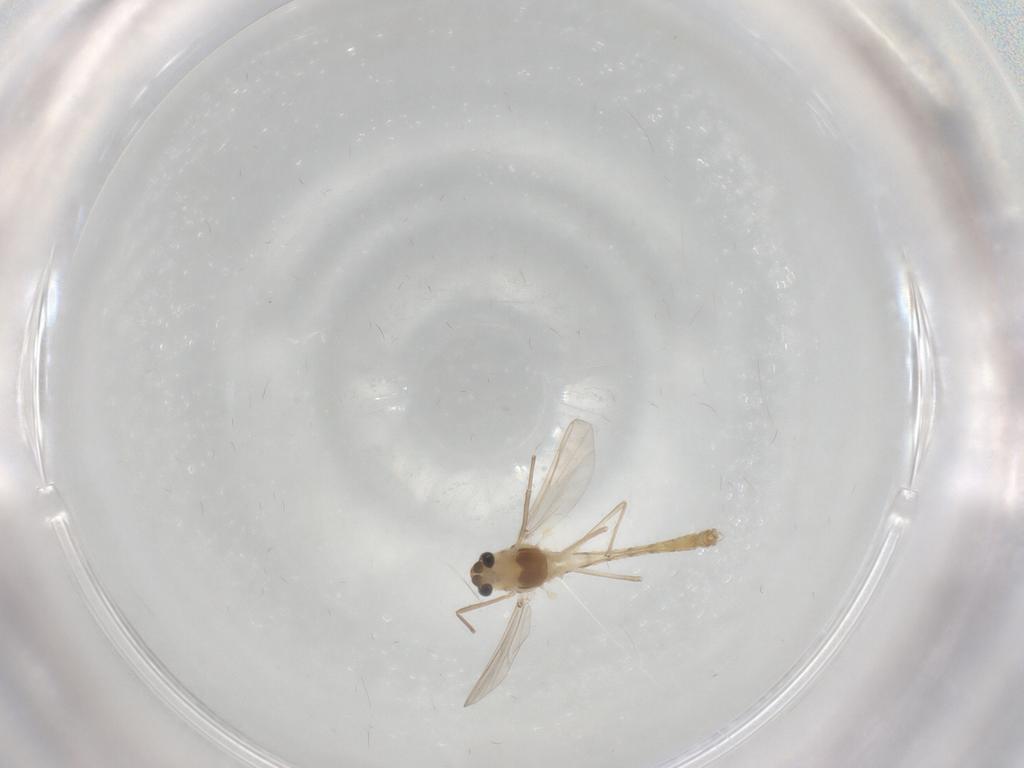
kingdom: Animalia
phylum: Arthropoda
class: Insecta
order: Diptera
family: Chironomidae
